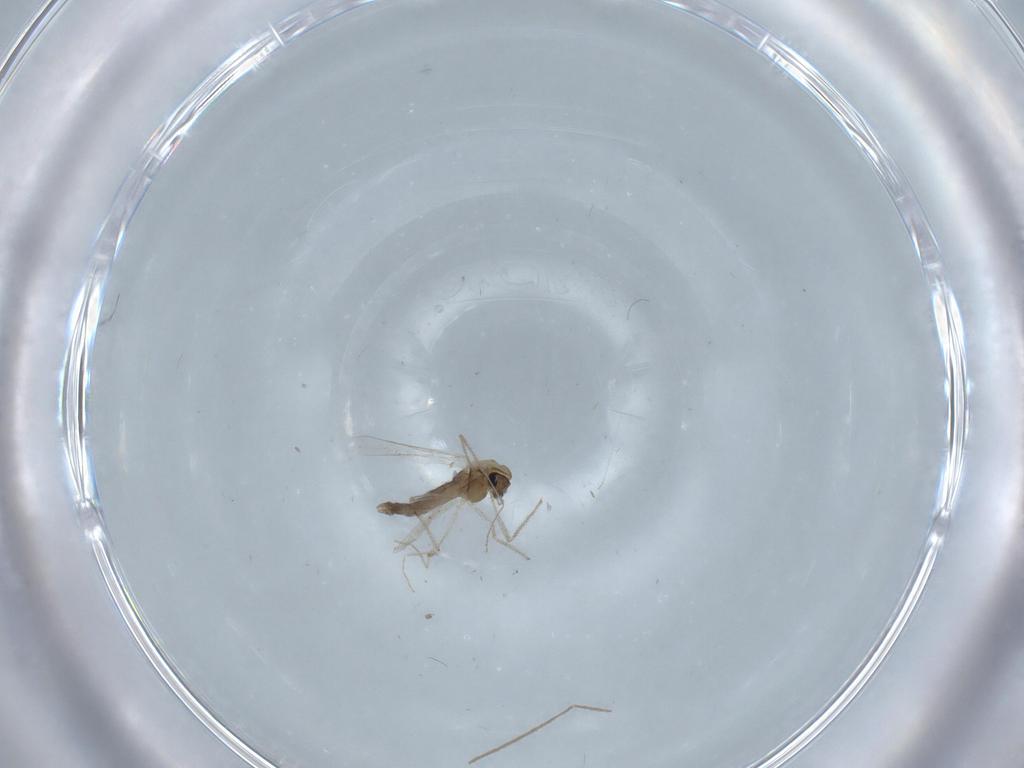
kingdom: Animalia
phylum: Arthropoda
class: Insecta
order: Diptera
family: Chironomidae
